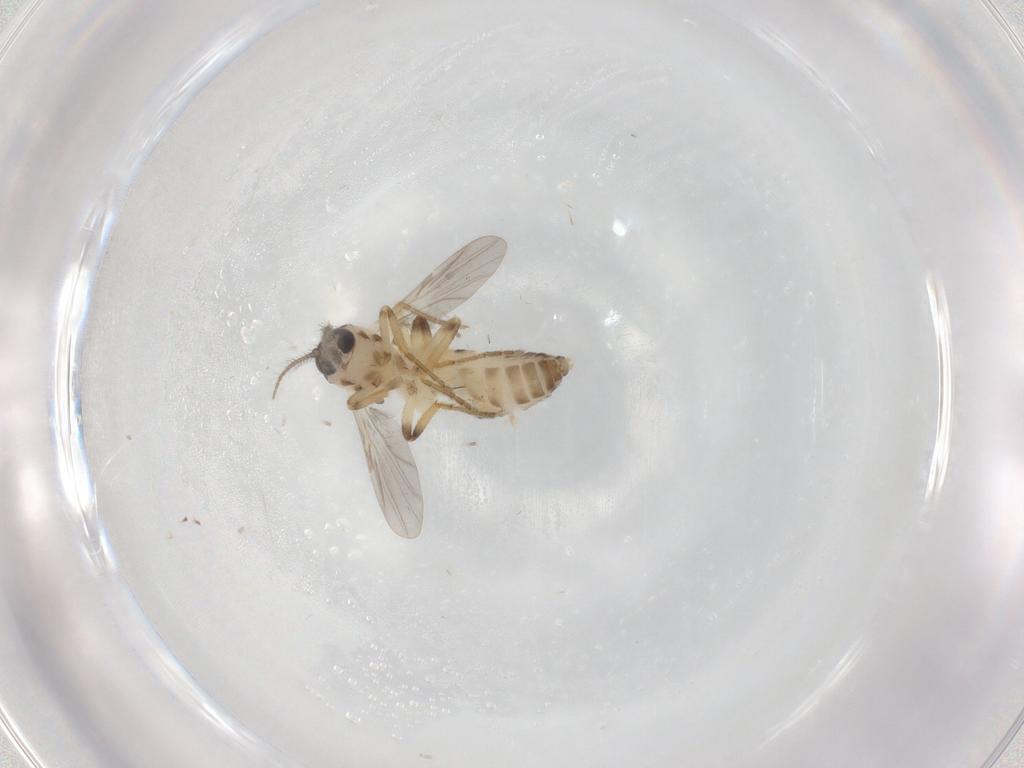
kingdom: Animalia
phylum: Arthropoda
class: Insecta
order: Diptera
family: Ceratopogonidae
